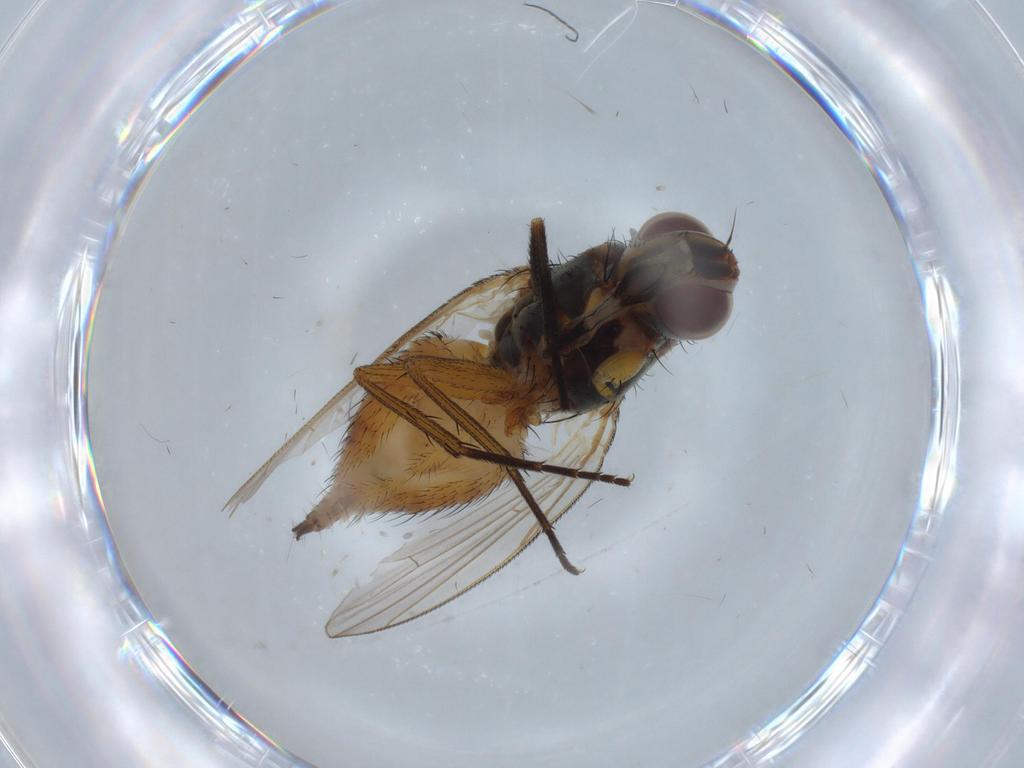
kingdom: Animalia
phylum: Arthropoda
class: Insecta
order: Diptera
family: Muscidae
